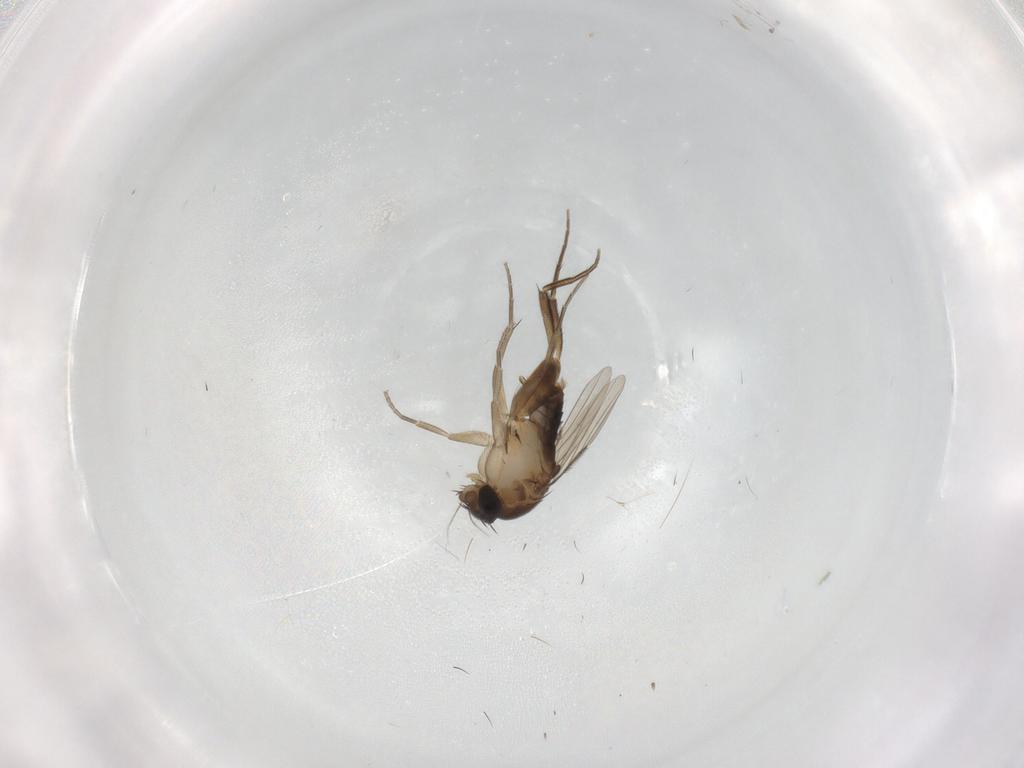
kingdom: Animalia
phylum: Arthropoda
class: Insecta
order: Diptera
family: Phoridae
